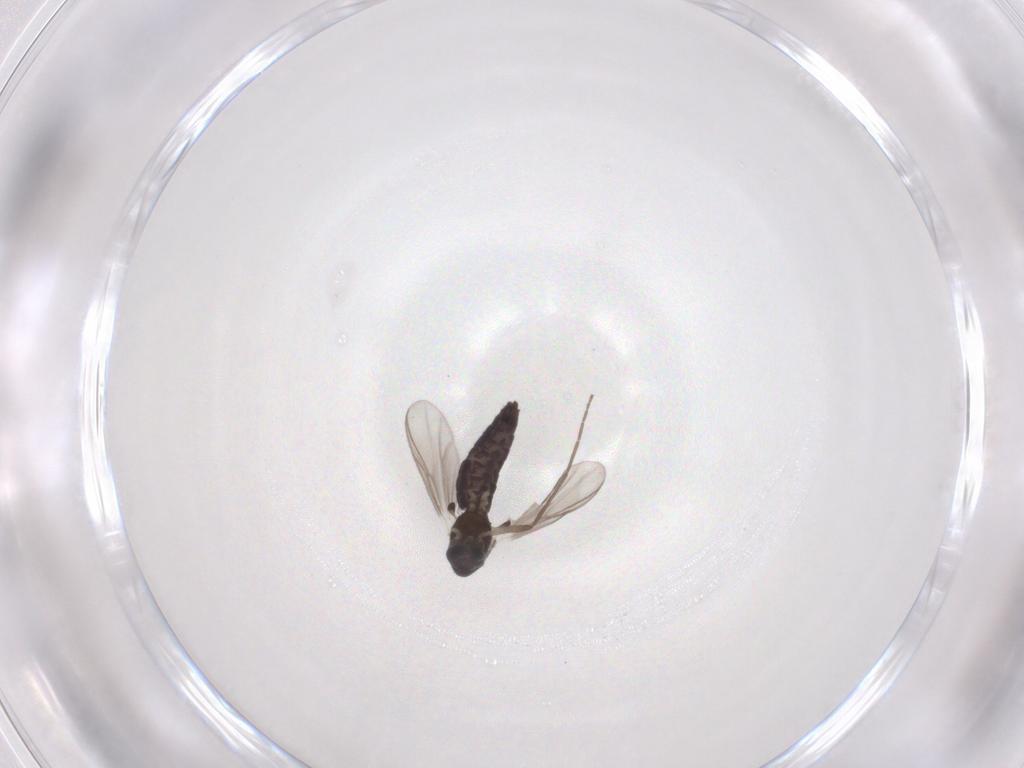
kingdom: Animalia
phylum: Arthropoda
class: Insecta
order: Diptera
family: Chironomidae
